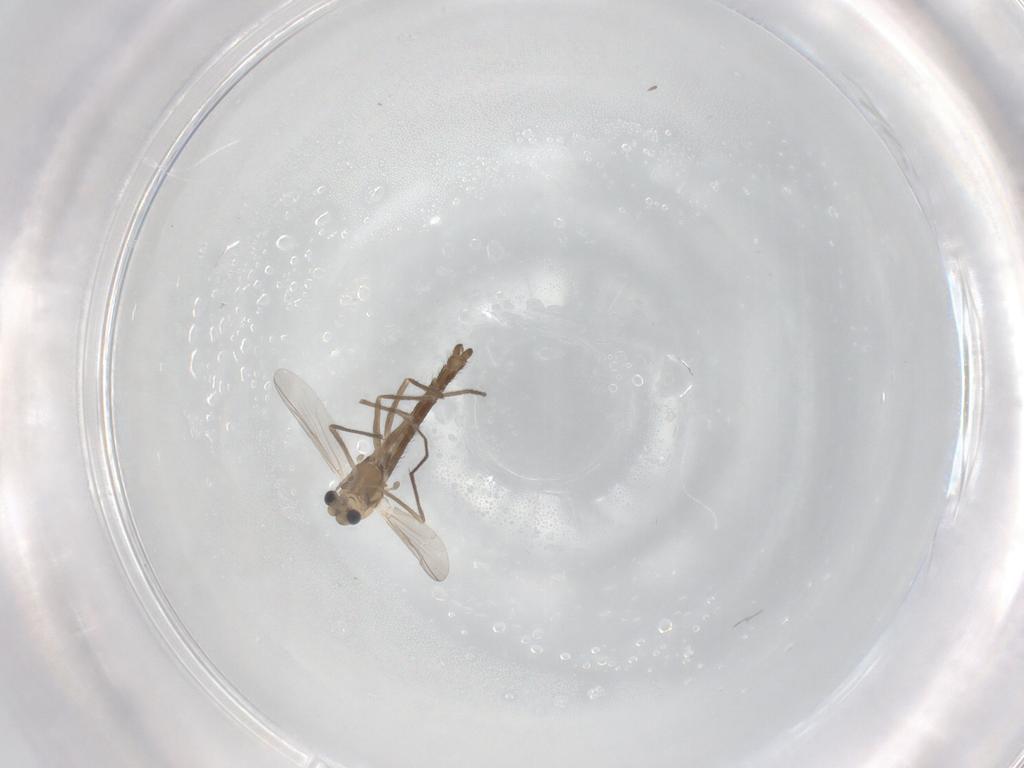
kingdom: Animalia
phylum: Arthropoda
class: Insecta
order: Diptera
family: Chironomidae
